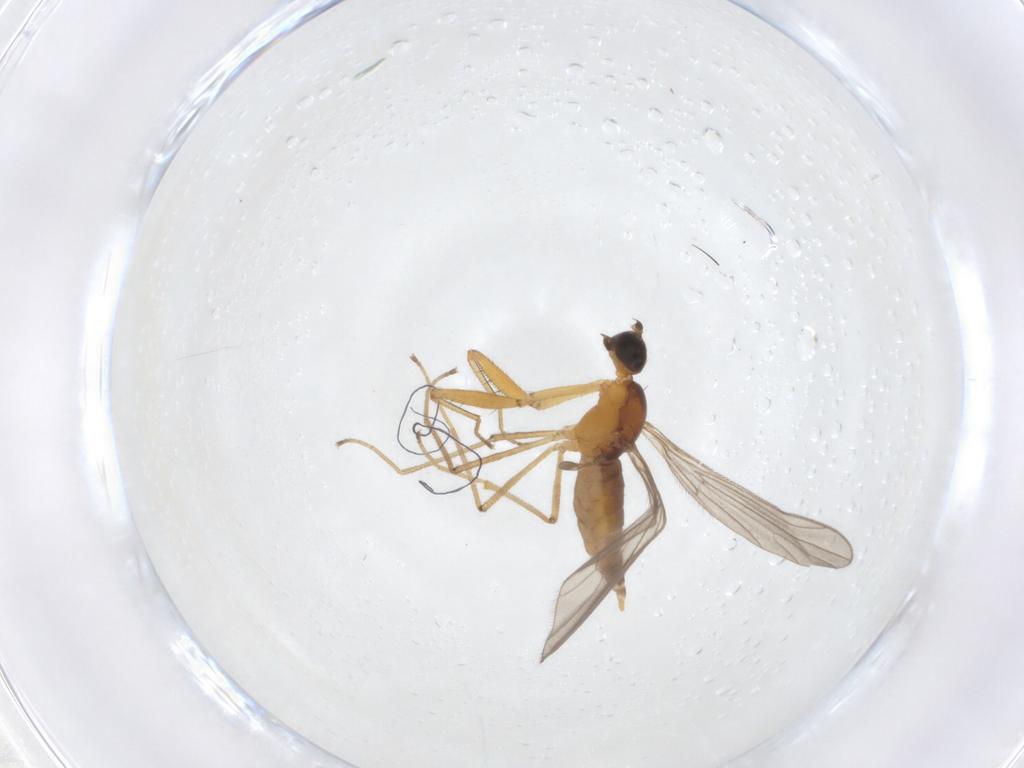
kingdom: Animalia
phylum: Arthropoda
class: Insecta
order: Diptera
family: Empididae
